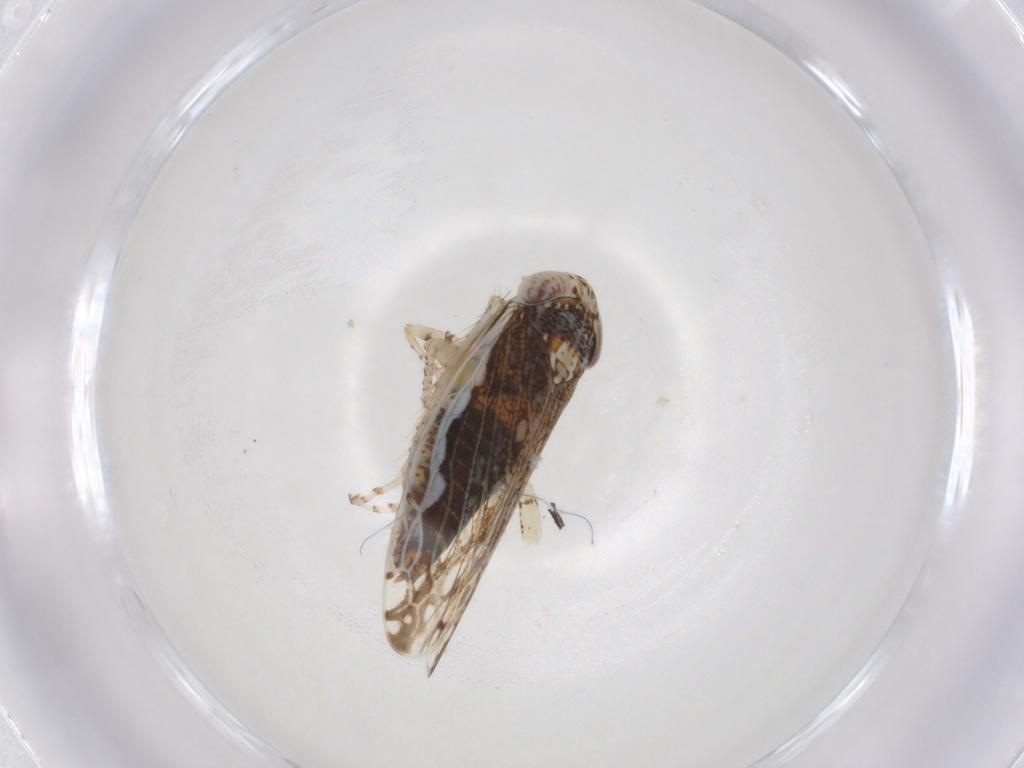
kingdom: Animalia
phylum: Arthropoda
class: Insecta
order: Hemiptera
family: Cicadellidae
